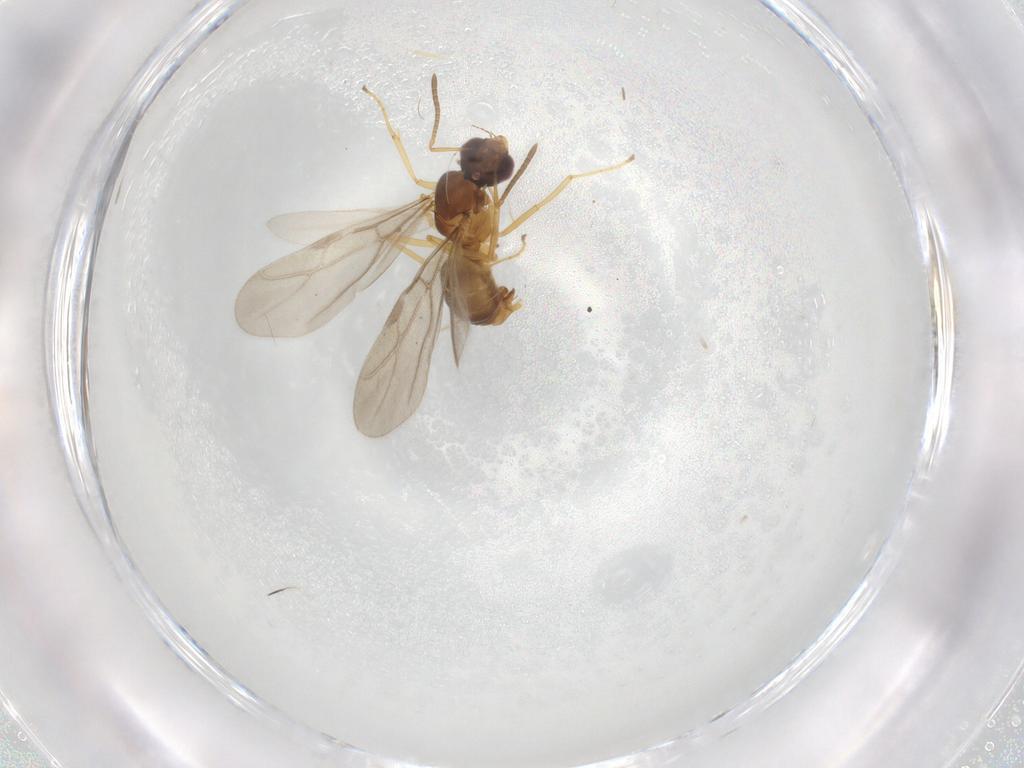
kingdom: Animalia
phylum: Arthropoda
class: Insecta
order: Hymenoptera
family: Formicidae
